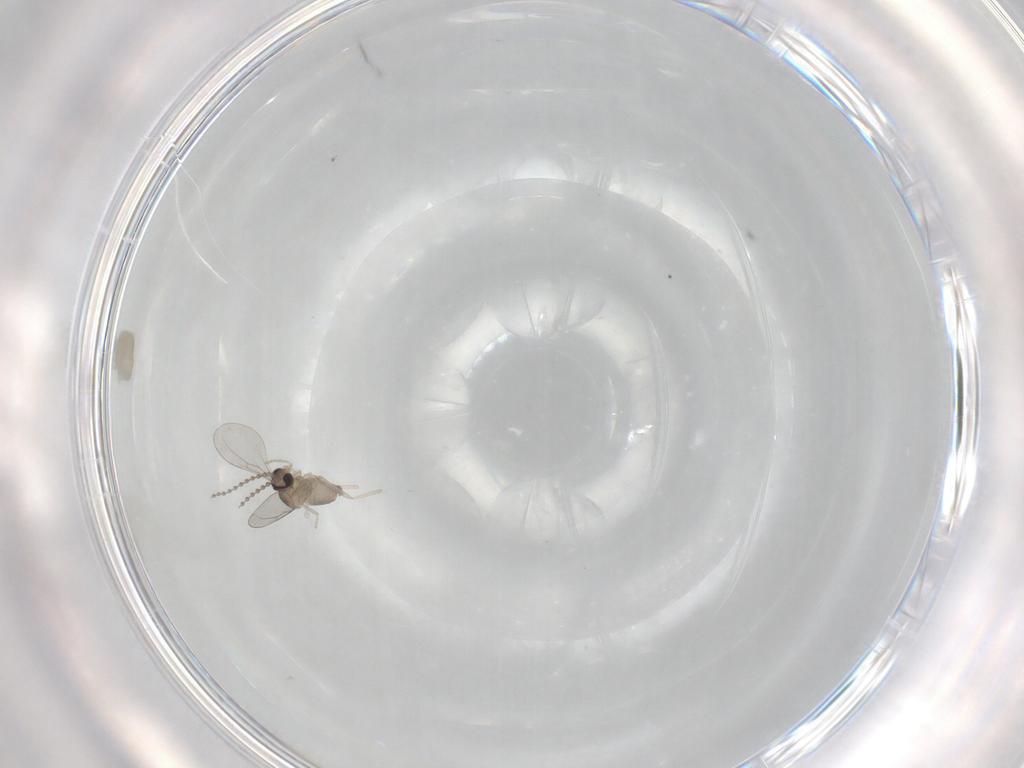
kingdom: Animalia
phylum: Arthropoda
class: Insecta
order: Diptera
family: Cecidomyiidae
